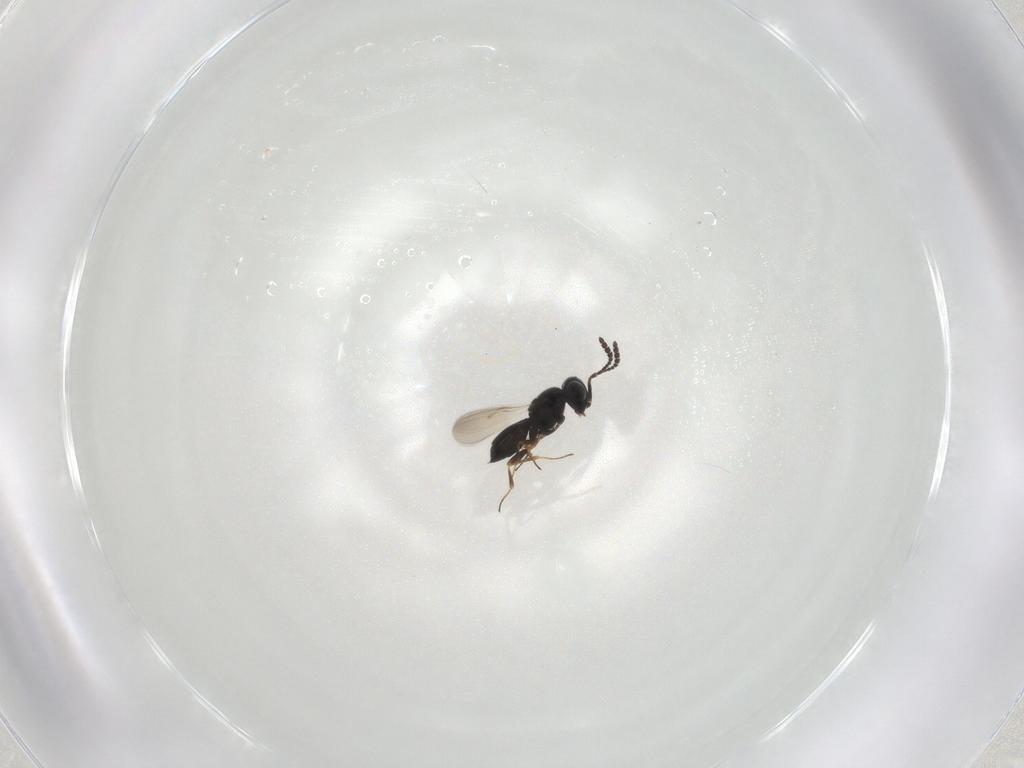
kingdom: Animalia
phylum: Arthropoda
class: Insecta
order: Hymenoptera
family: Scelionidae
